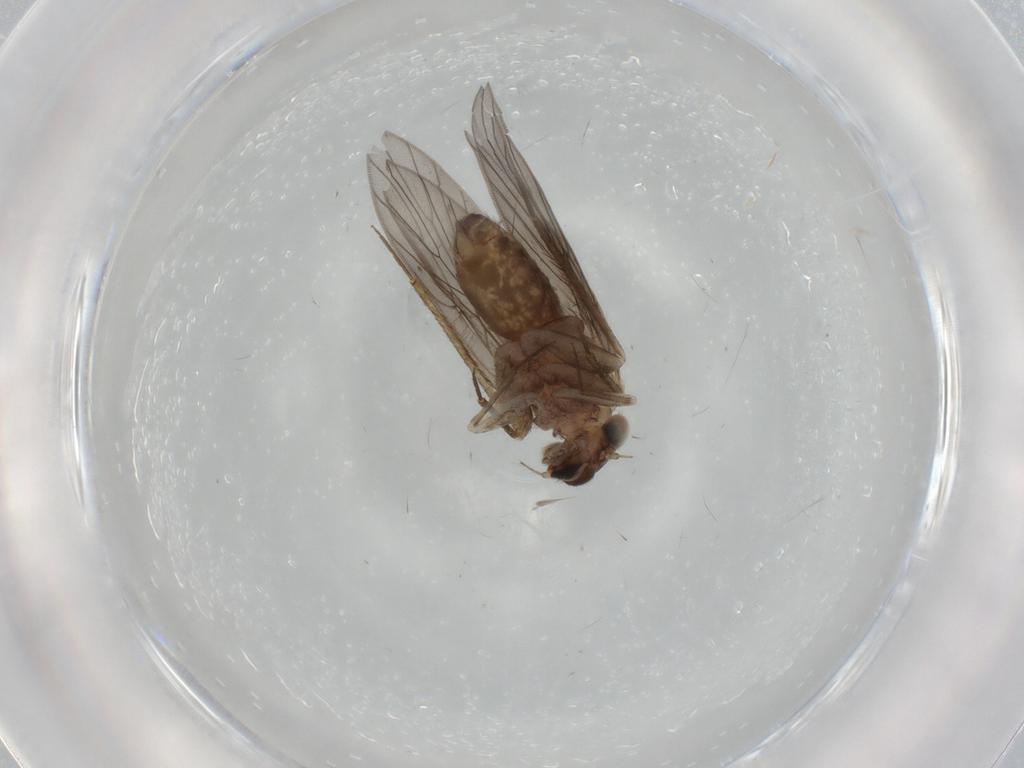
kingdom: Animalia
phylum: Arthropoda
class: Insecta
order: Psocodea
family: Lepidopsocidae
